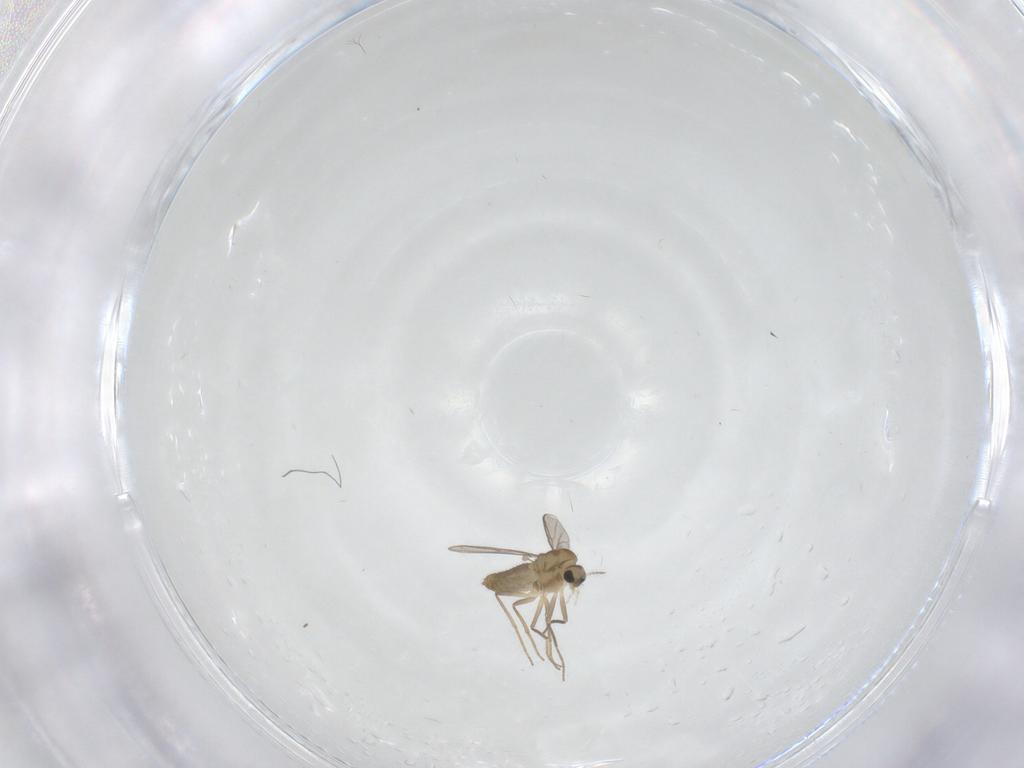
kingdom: Animalia
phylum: Arthropoda
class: Insecta
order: Diptera
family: Chironomidae
